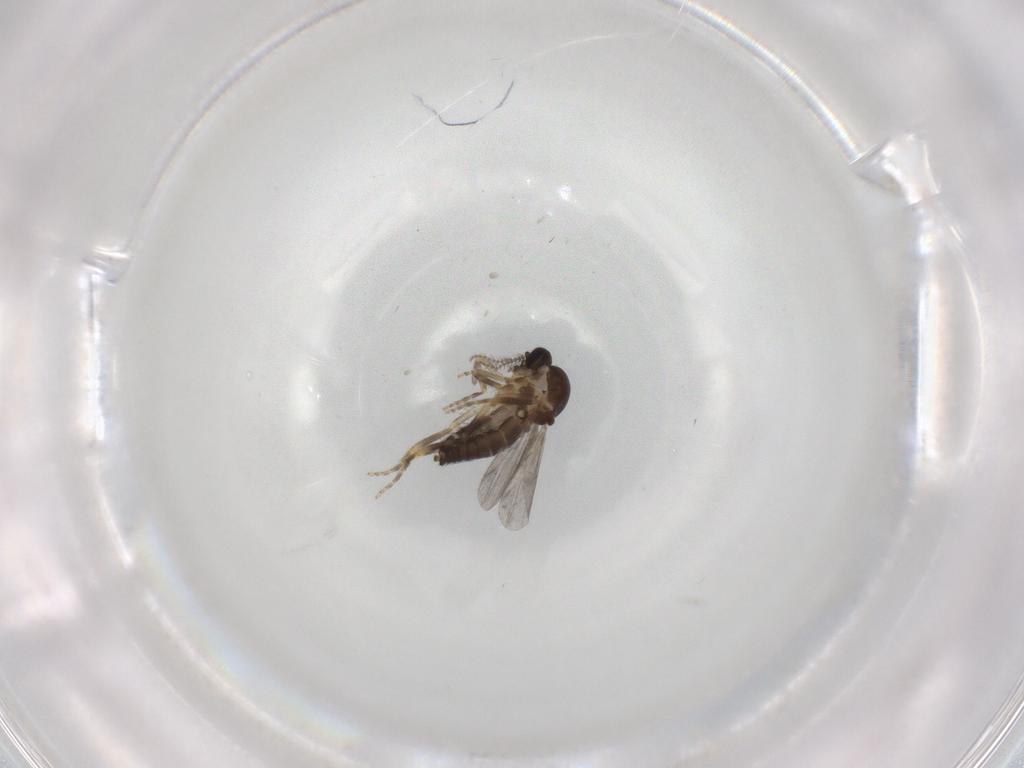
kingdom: Animalia
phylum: Arthropoda
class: Insecta
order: Diptera
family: Ceratopogonidae
